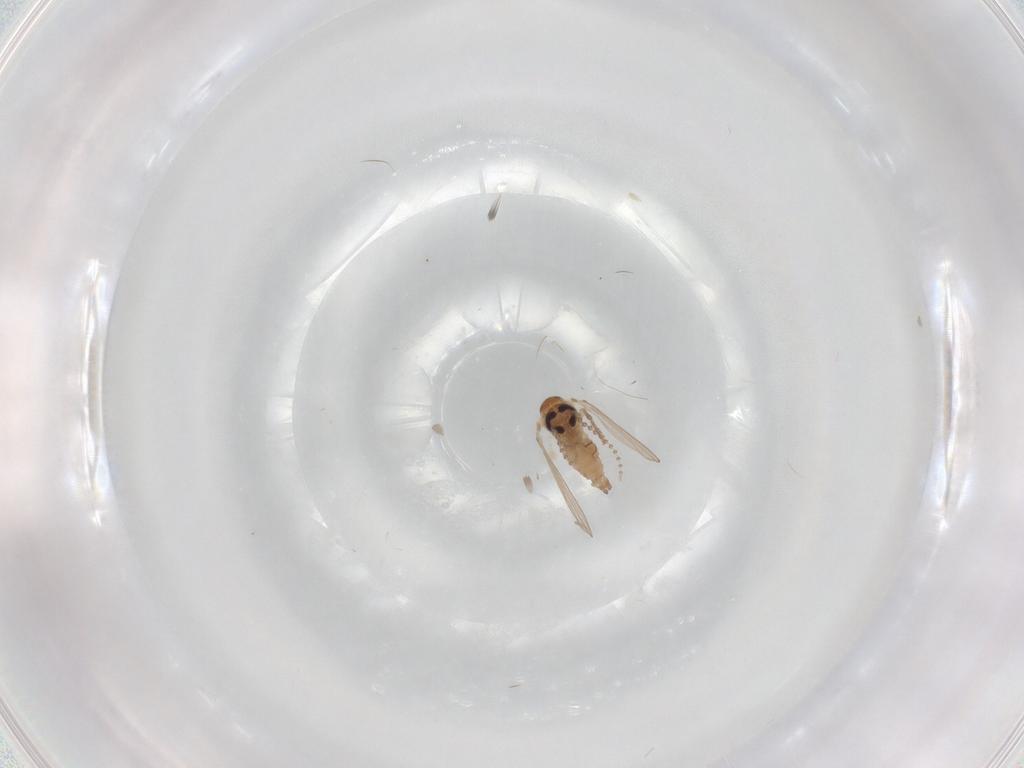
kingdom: Animalia
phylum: Arthropoda
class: Insecta
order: Diptera
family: Psychodidae
